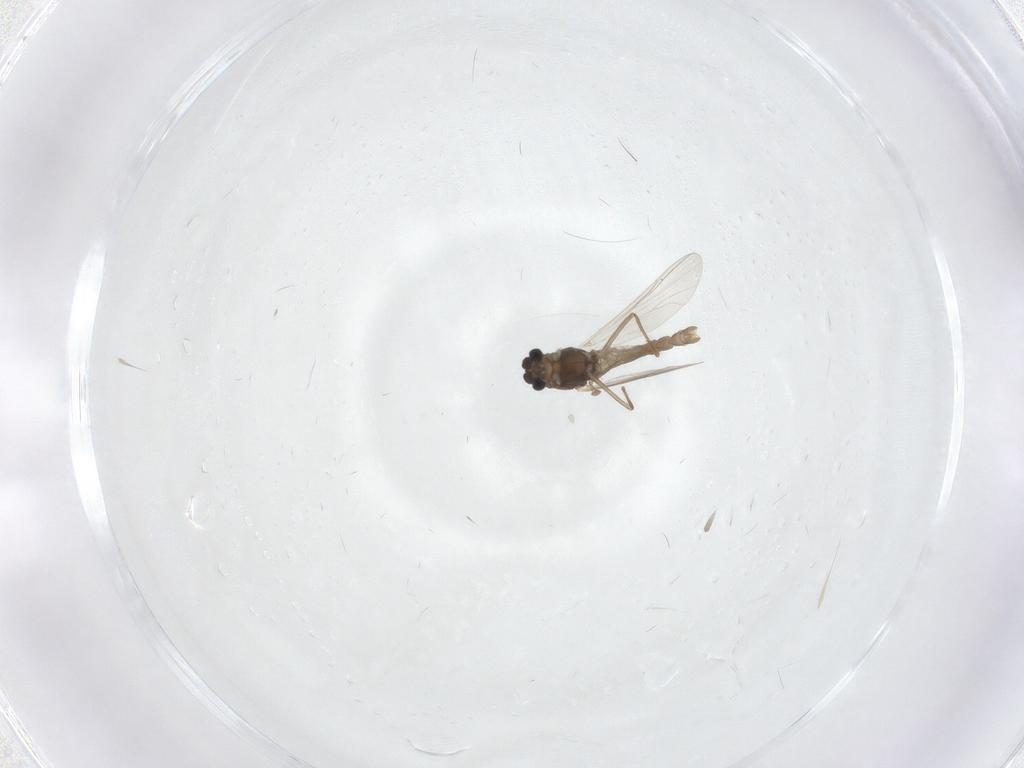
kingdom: Animalia
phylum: Arthropoda
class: Insecta
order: Diptera
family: Chironomidae
